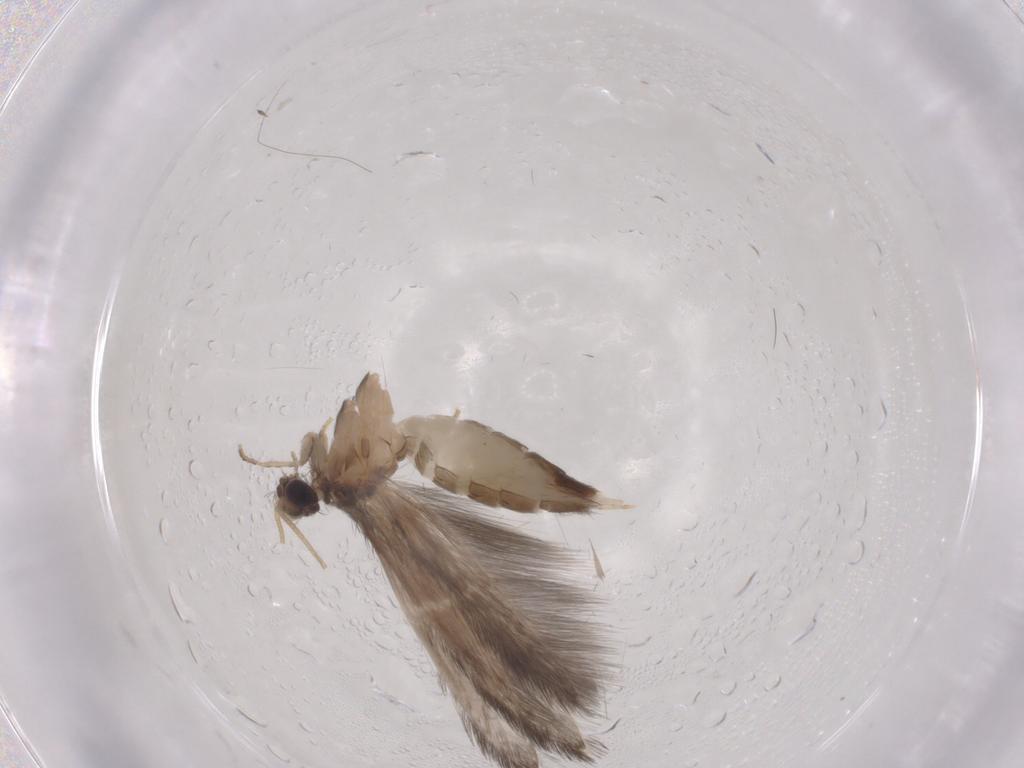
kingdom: Animalia
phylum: Arthropoda
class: Insecta
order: Trichoptera
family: Hydroptilidae
